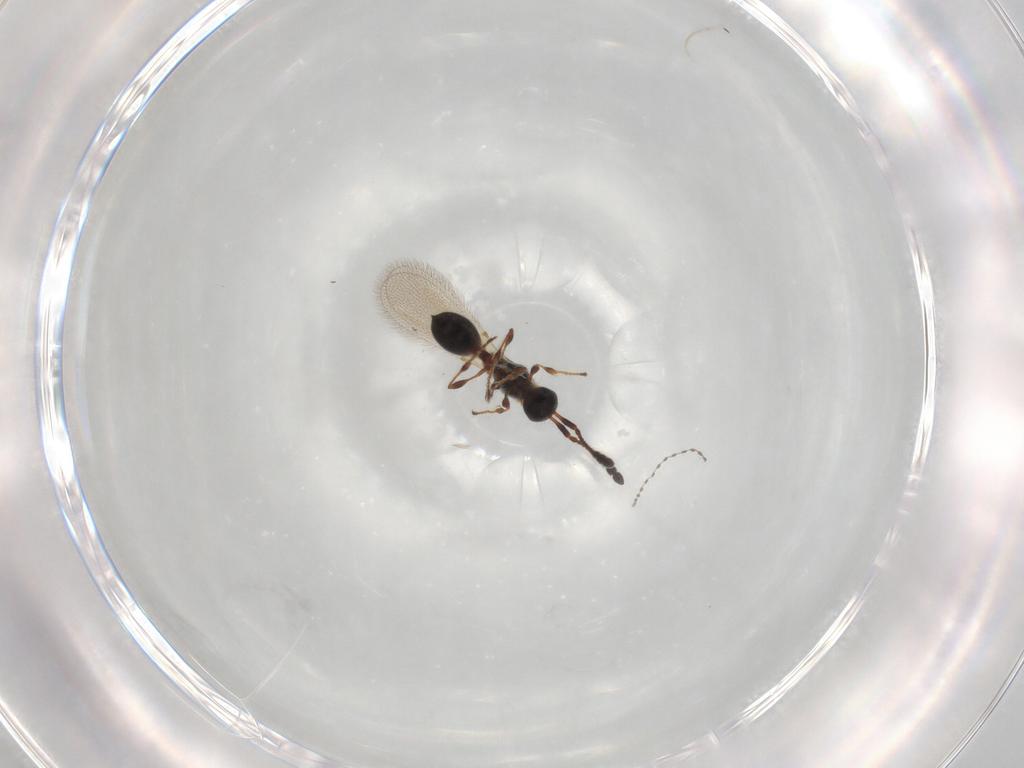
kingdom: Animalia
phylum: Arthropoda
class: Insecta
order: Hymenoptera
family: Diapriidae
